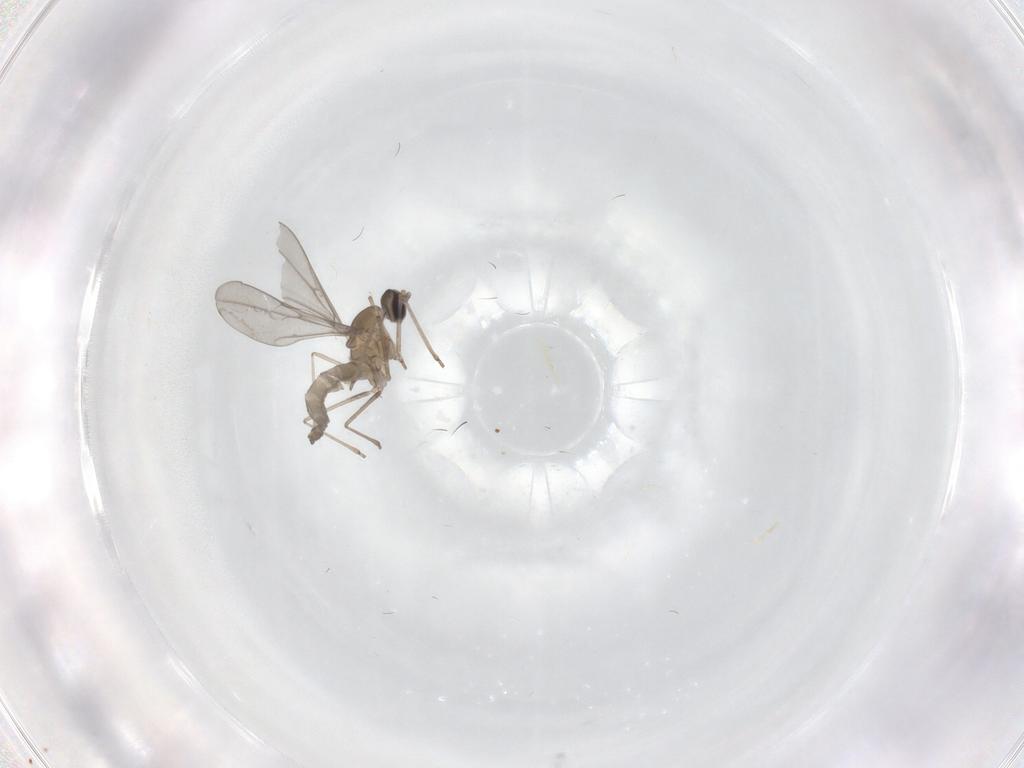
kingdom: Animalia
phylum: Arthropoda
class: Insecta
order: Diptera
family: Cecidomyiidae
